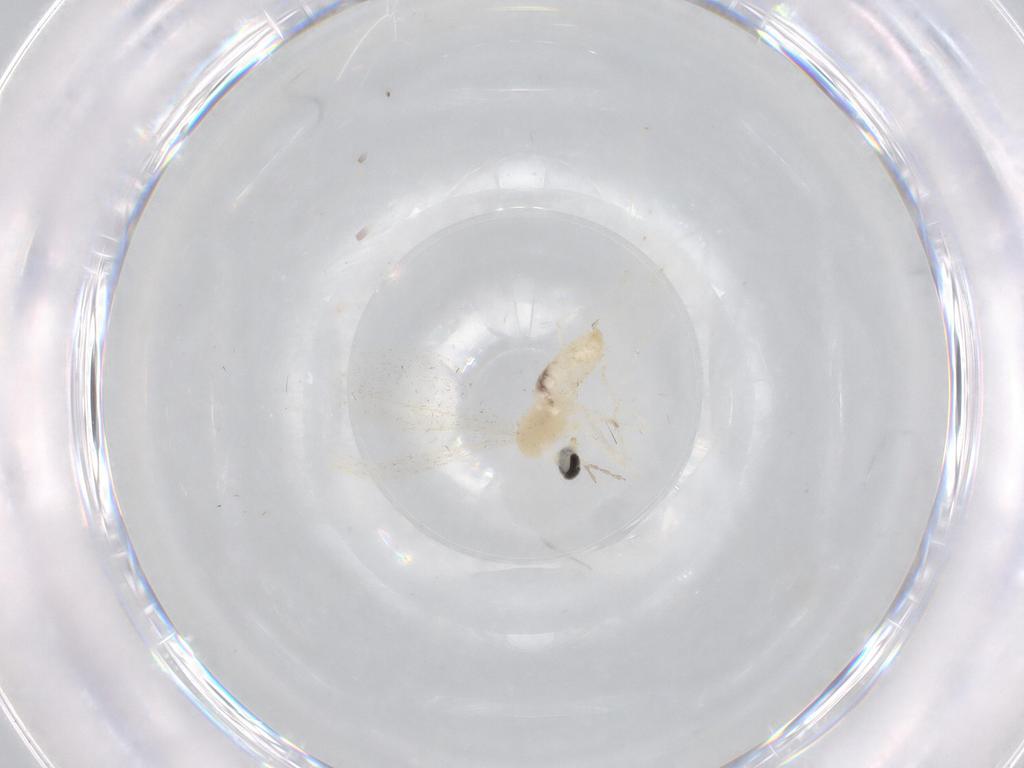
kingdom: Animalia
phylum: Arthropoda
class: Insecta
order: Diptera
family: Cecidomyiidae
